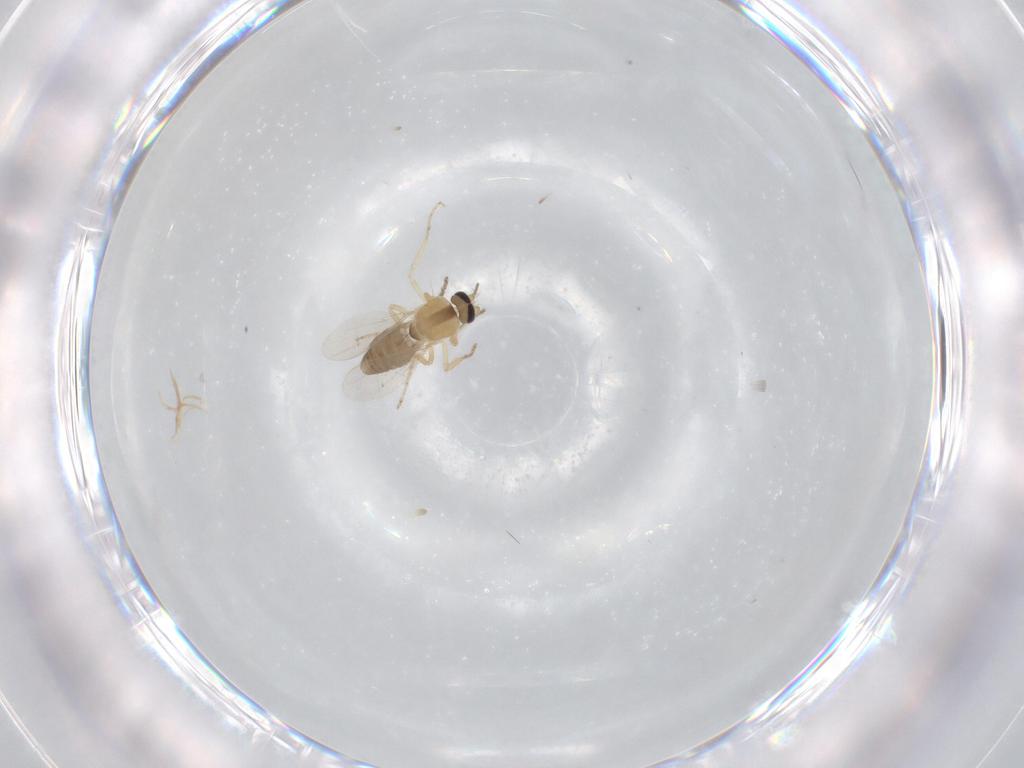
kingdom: Animalia
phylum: Arthropoda
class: Insecta
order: Diptera
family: Ceratopogonidae
